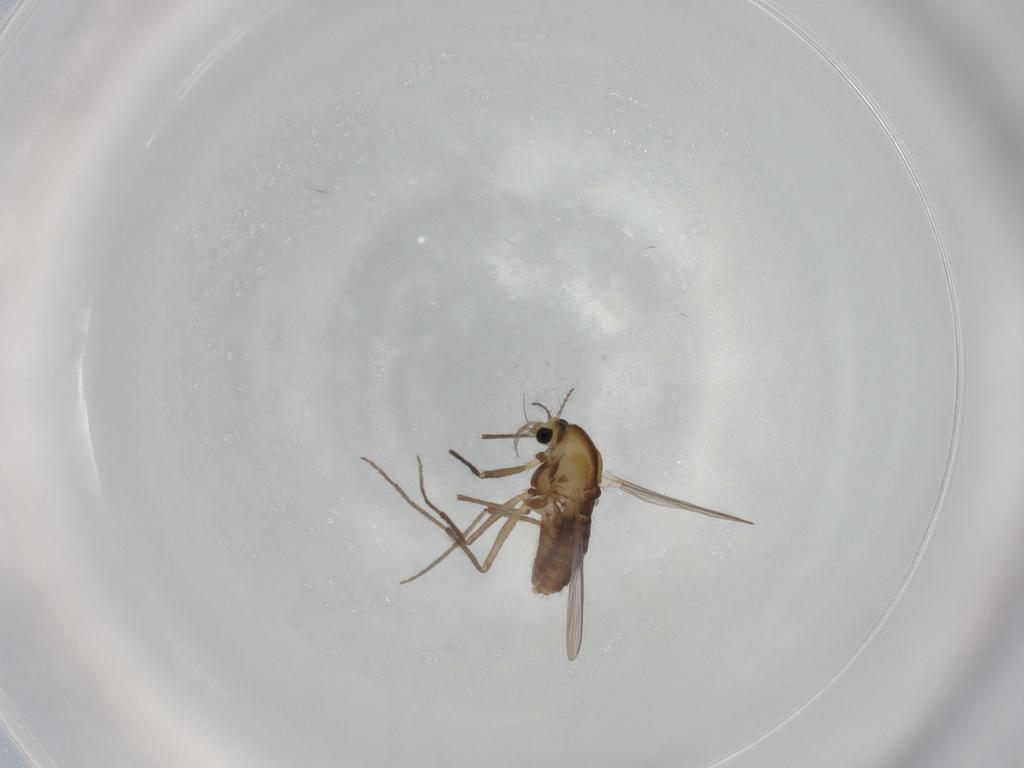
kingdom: Animalia
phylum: Arthropoda
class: Insecta
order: Diptera
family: Chironomidae
